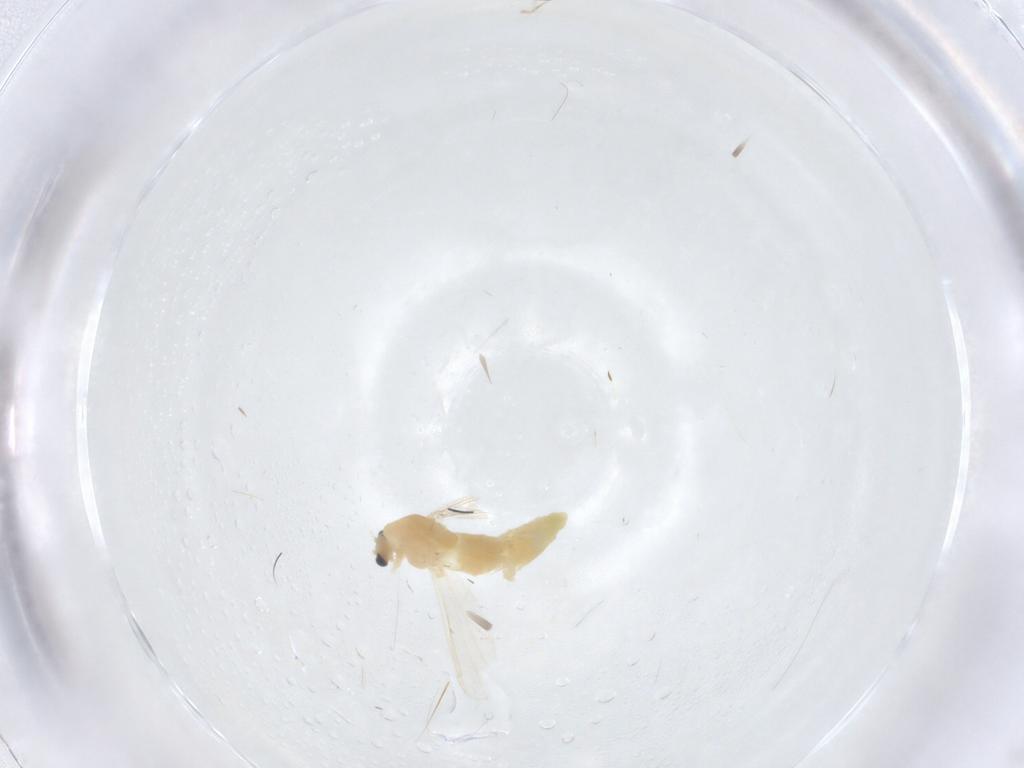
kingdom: Animalia
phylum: Arthropoda
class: Insecta
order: Diptera
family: Chironomidae
